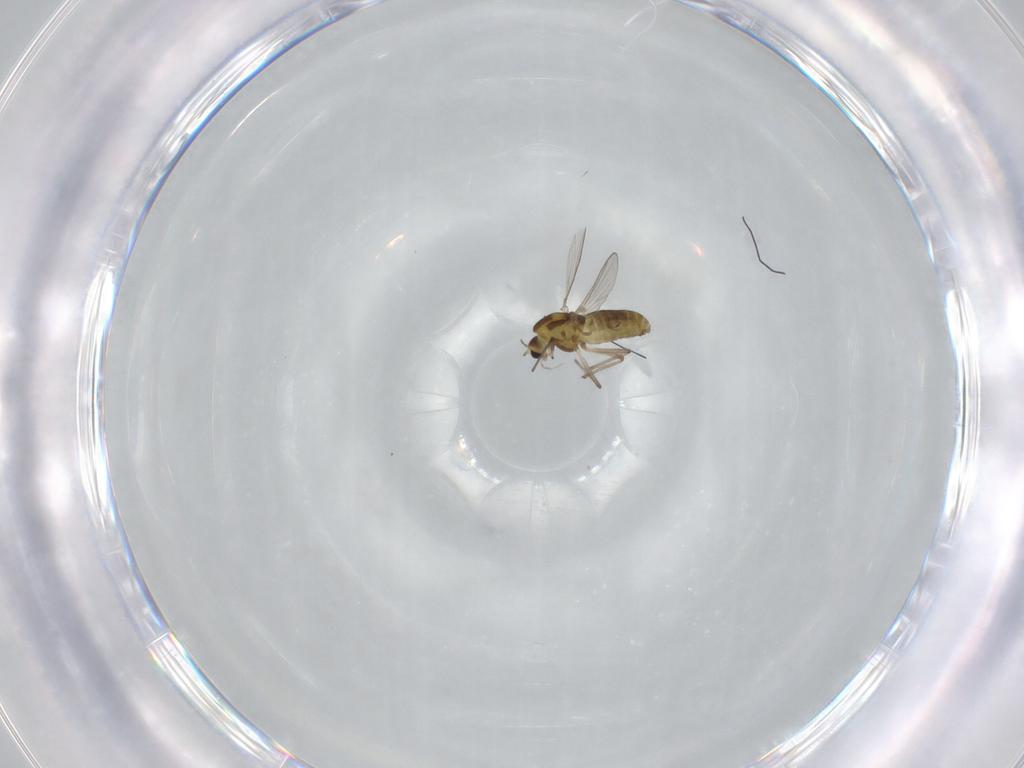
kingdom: Animalia
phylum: Arthropoda
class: Insecta
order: Diptera
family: Chironomidae
